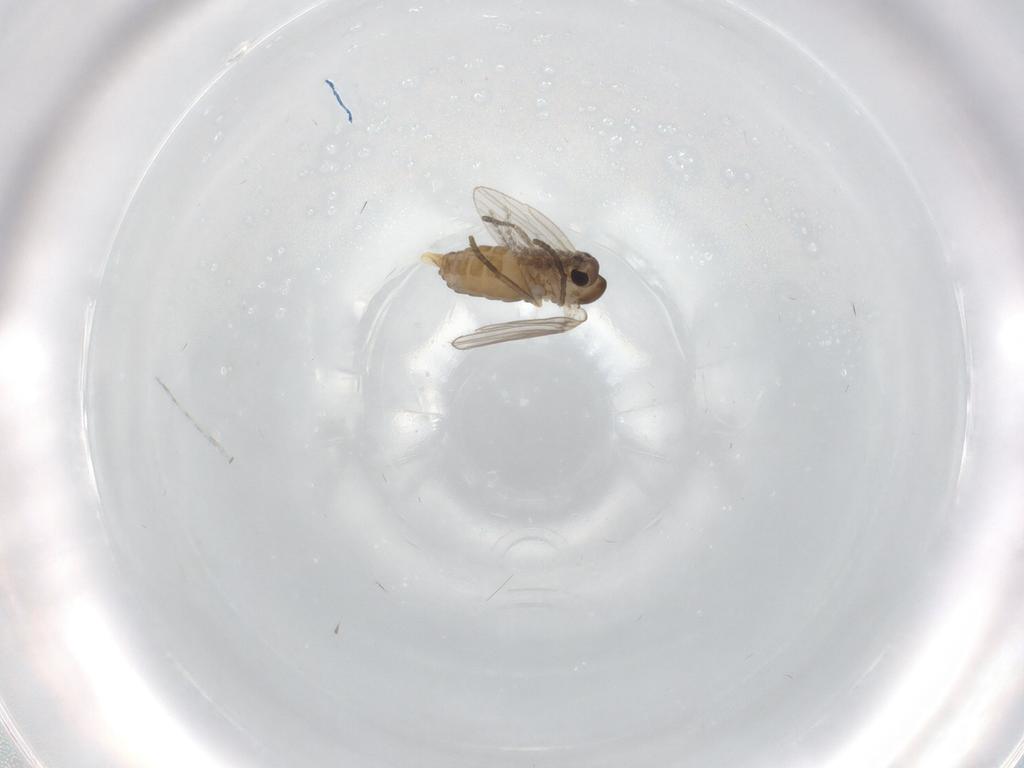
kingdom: Animalia
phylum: Arthropoda
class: Insecta
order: Diptera
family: Psychodidae
